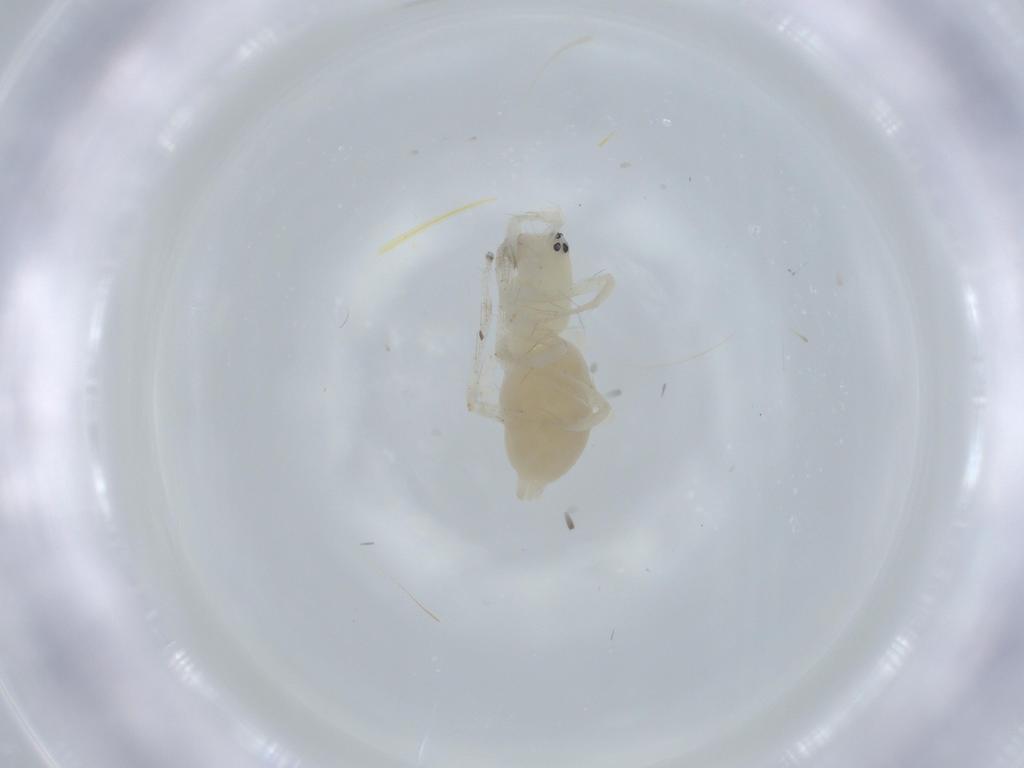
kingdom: Animalia
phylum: Arthropoda
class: Arachnida
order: Araneae
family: Anyphaenidae
